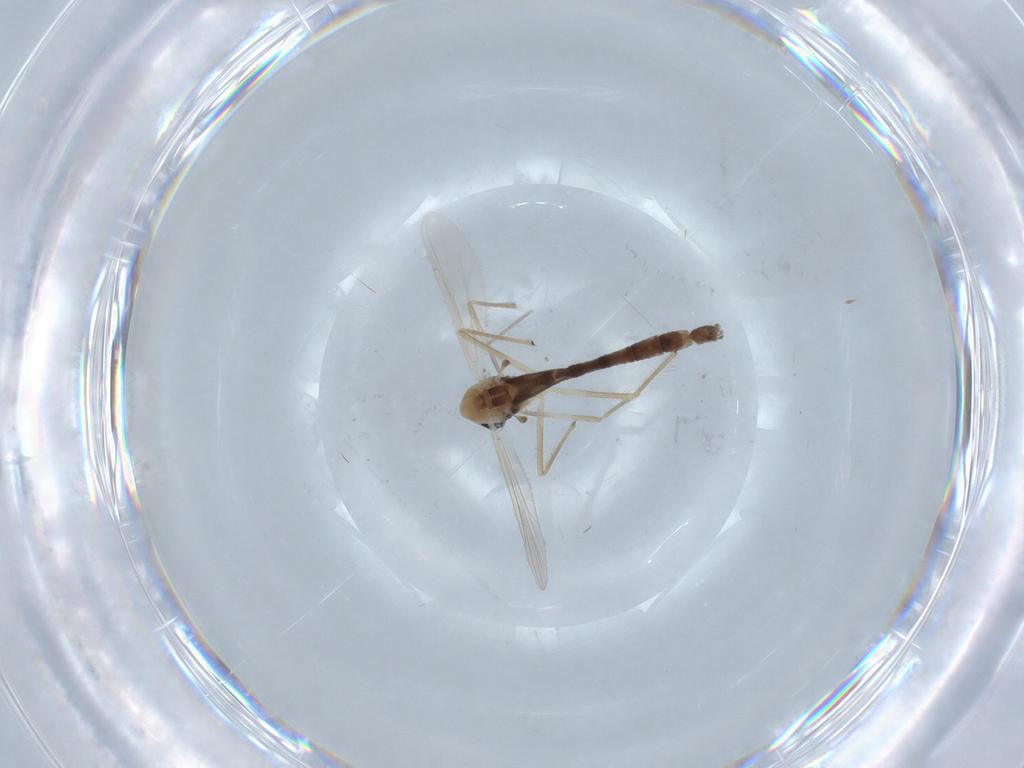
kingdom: Animalia
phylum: Arthropoda
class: Insecta
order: Diptera
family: Chironomidae
